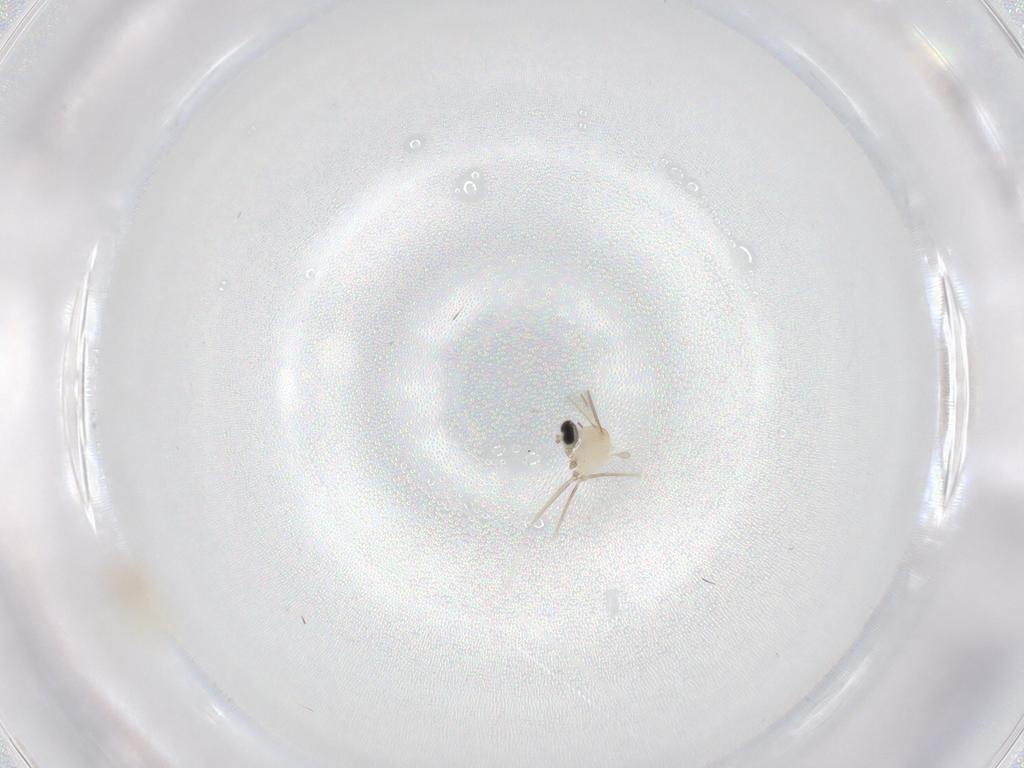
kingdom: Animalia
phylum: Arthropoda
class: Insecta
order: Diptera
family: Cecidomyiidae
